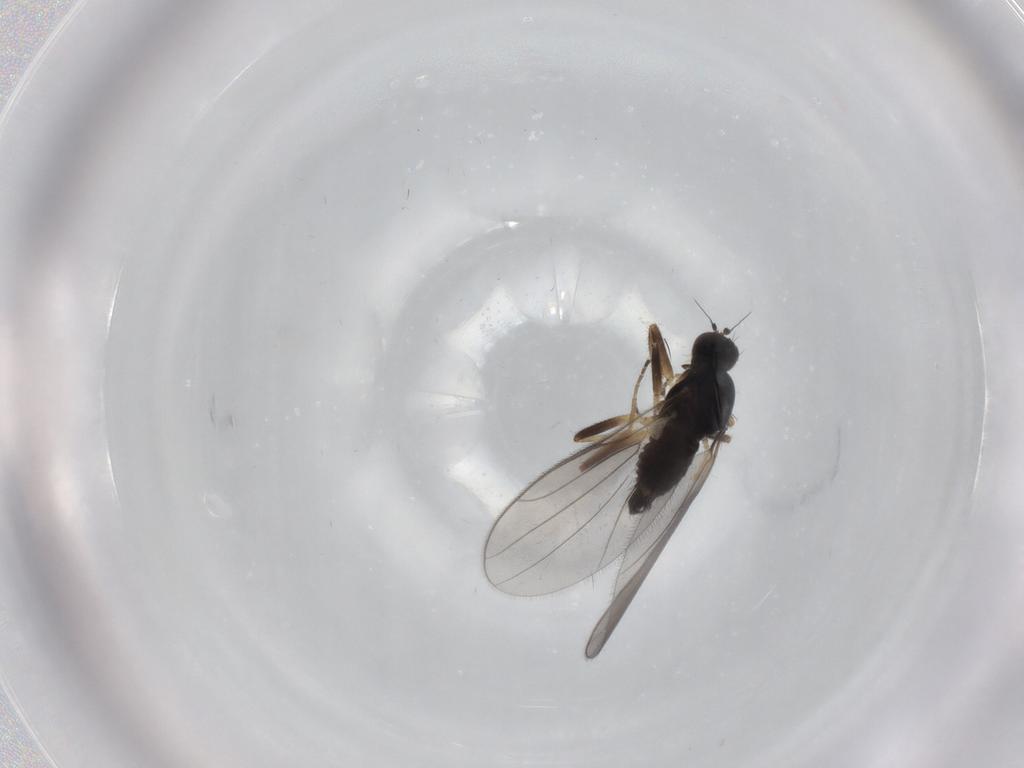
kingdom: Animalia
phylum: Arthropoda
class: Insecta
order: Diptera
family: Hybotidae
